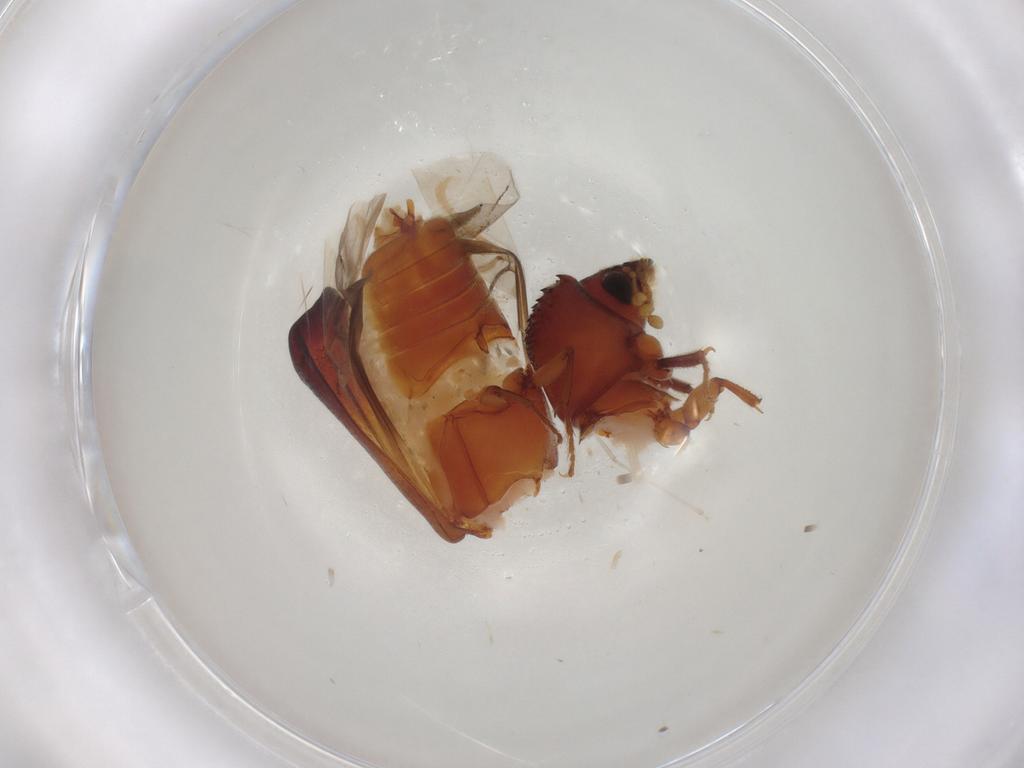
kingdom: Animalia
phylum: Arthropoda
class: Insecta
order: Coleoptera
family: Bostrichidae
